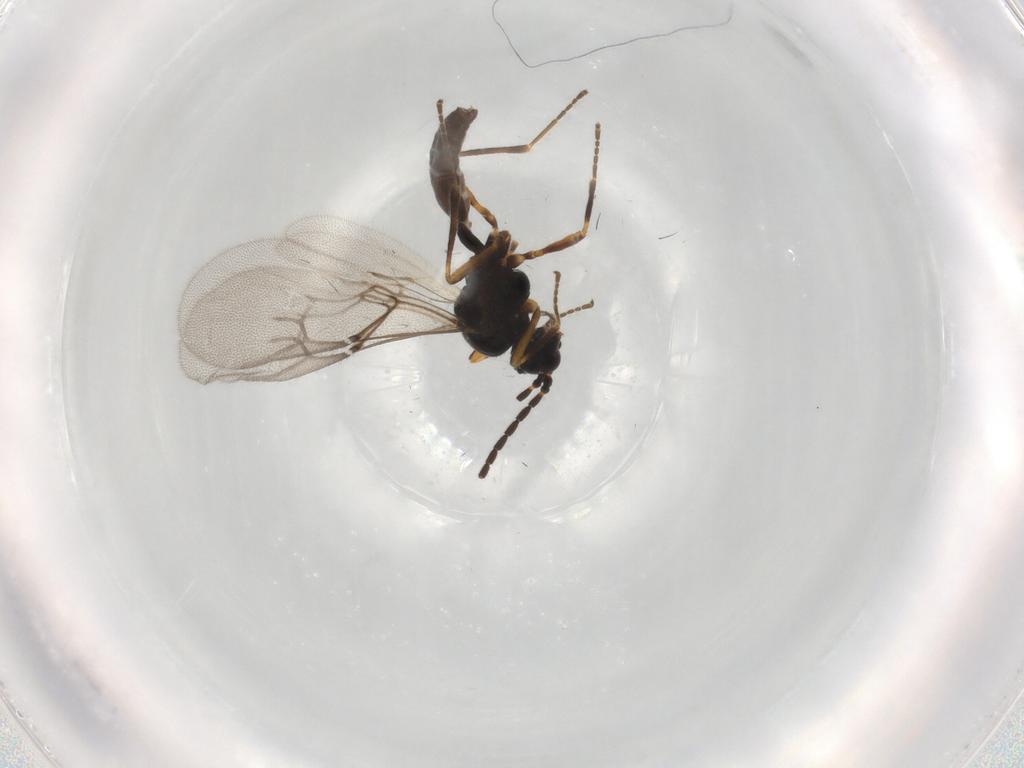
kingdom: Animalia
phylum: Arthropoda
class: Insecta
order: Hymenoptera
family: Braconidae
